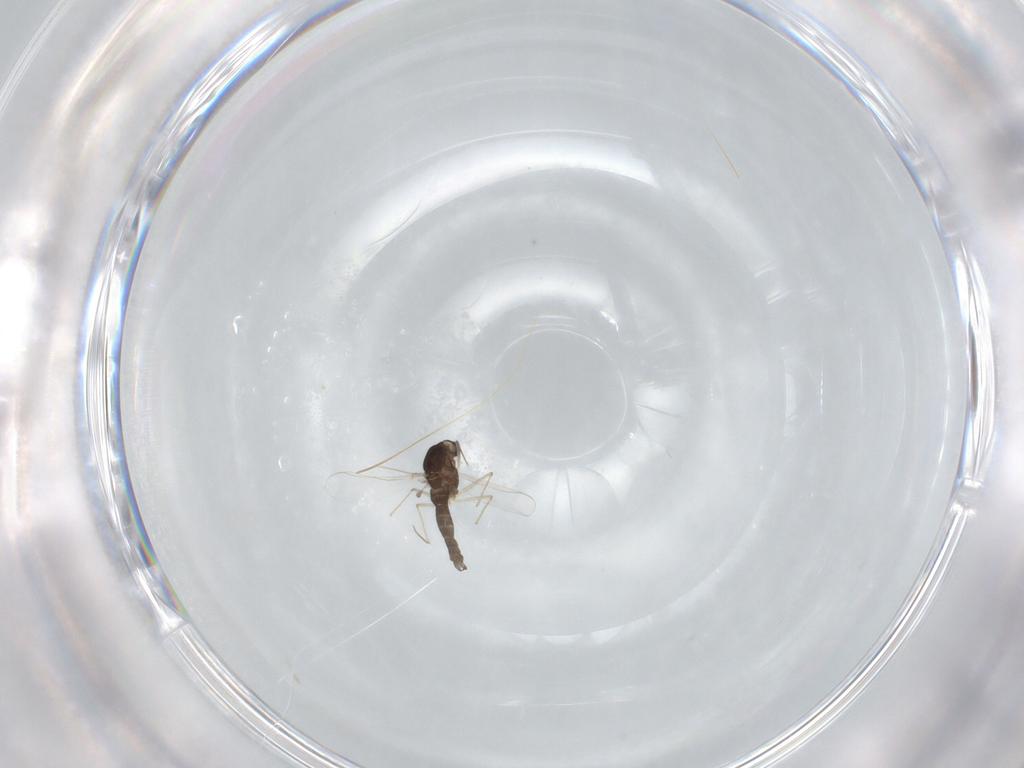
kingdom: Animalia
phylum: Arthropoda
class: Insecta
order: Diptera
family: Chironomidae
